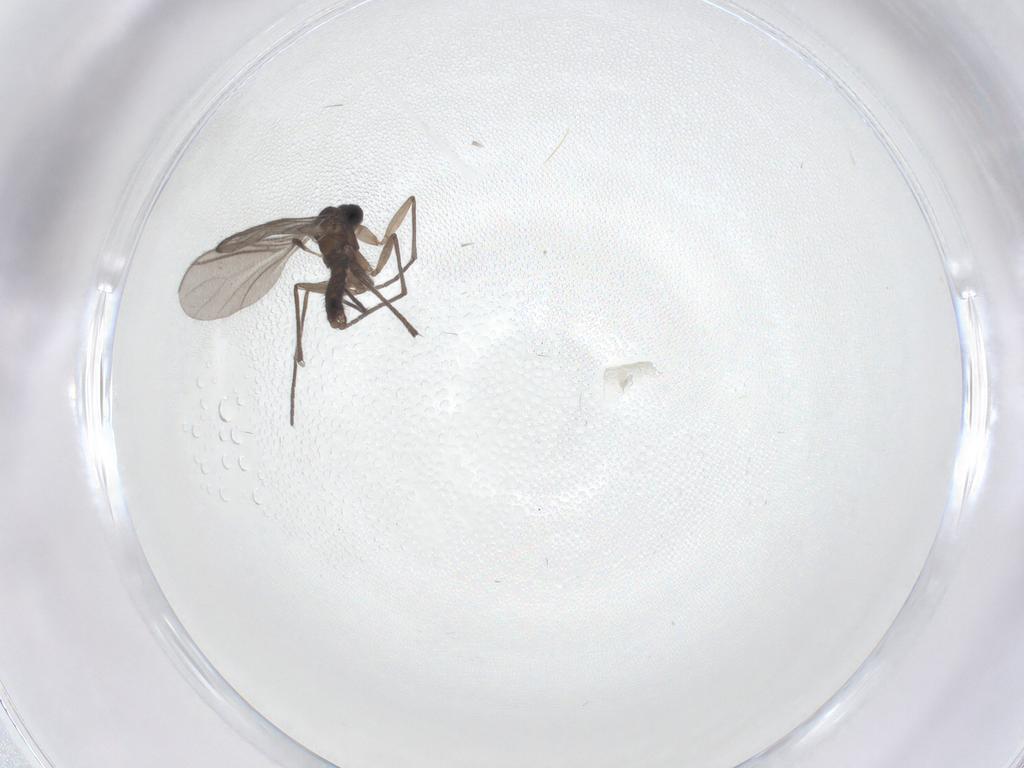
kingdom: Animalia
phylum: Arthropoda
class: Insecta
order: Diptera
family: Sciaridae
